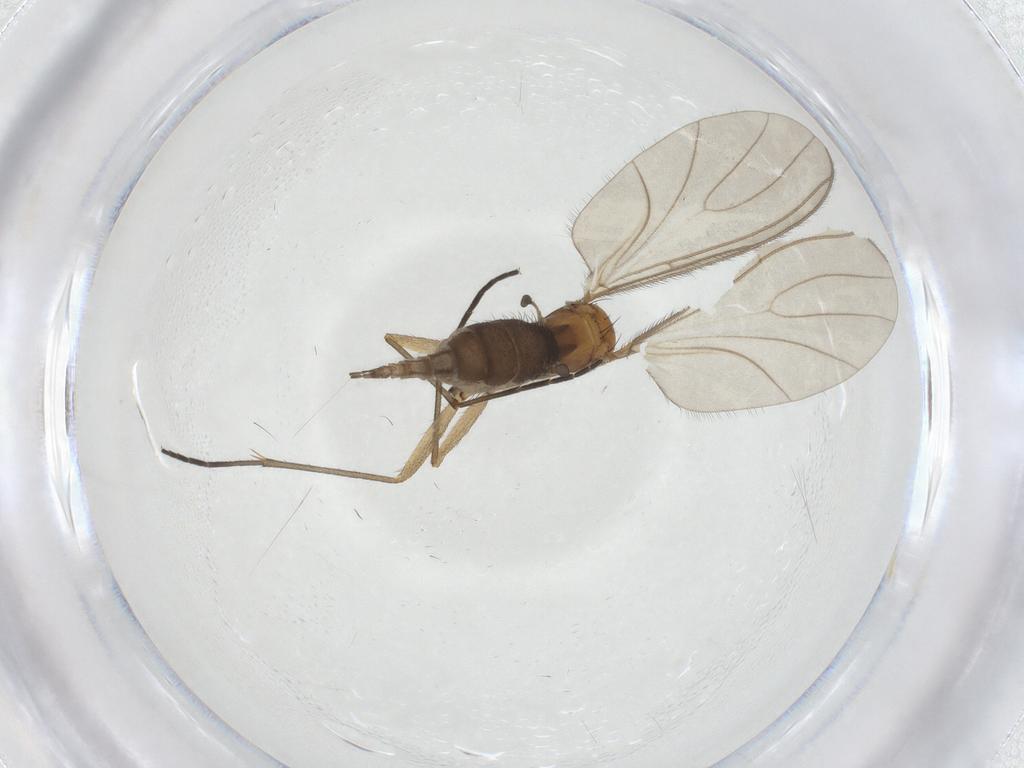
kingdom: Animalia
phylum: Arthropoda
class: Insecta
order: Diptera
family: Sciaridae
